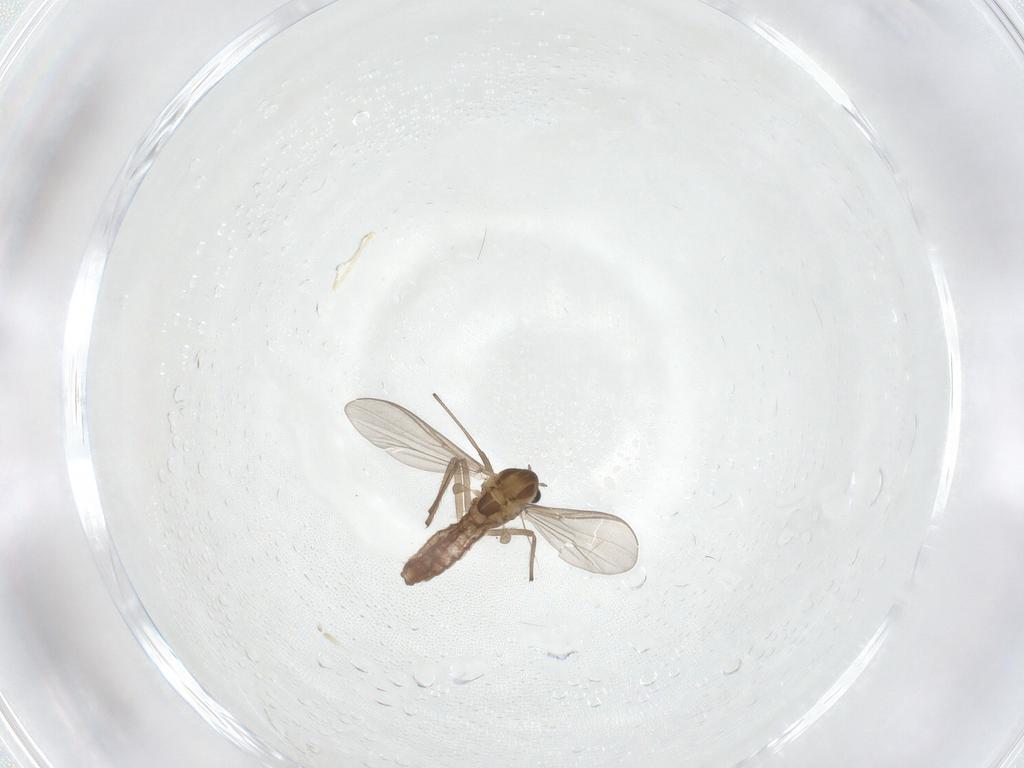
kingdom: Animalia
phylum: Arthropoda
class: Insecta
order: Diptera
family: Chironomidae
